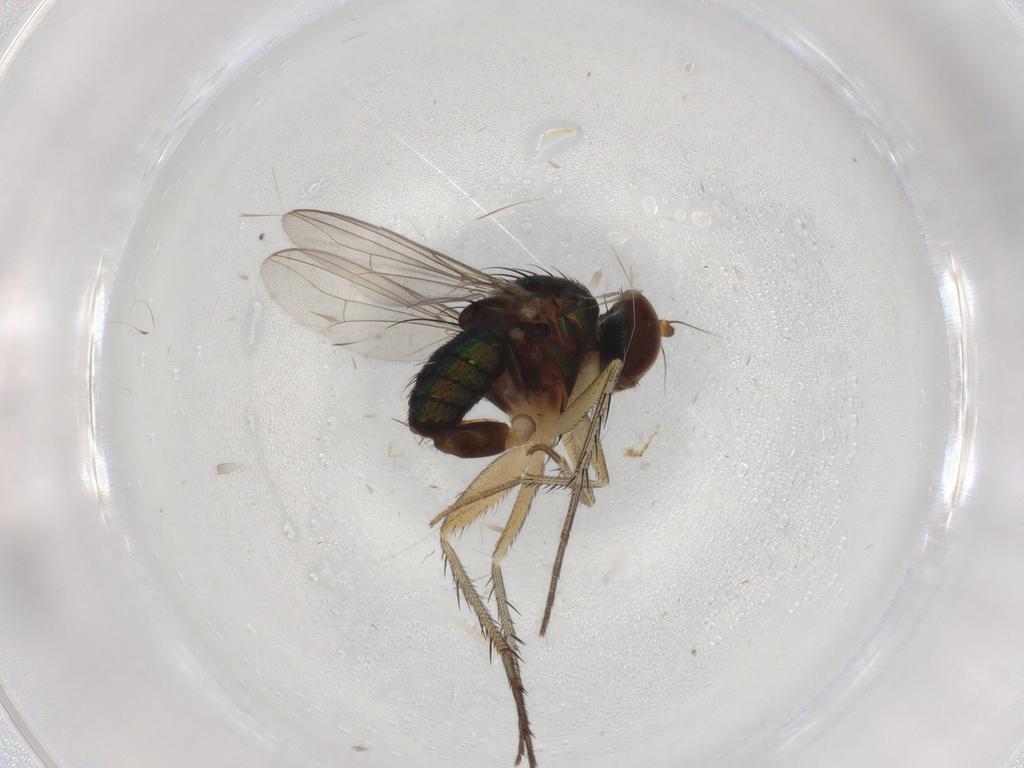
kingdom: Animalia
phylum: Arthropoda
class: Insecta
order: Diptera
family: Dolichopodidae
